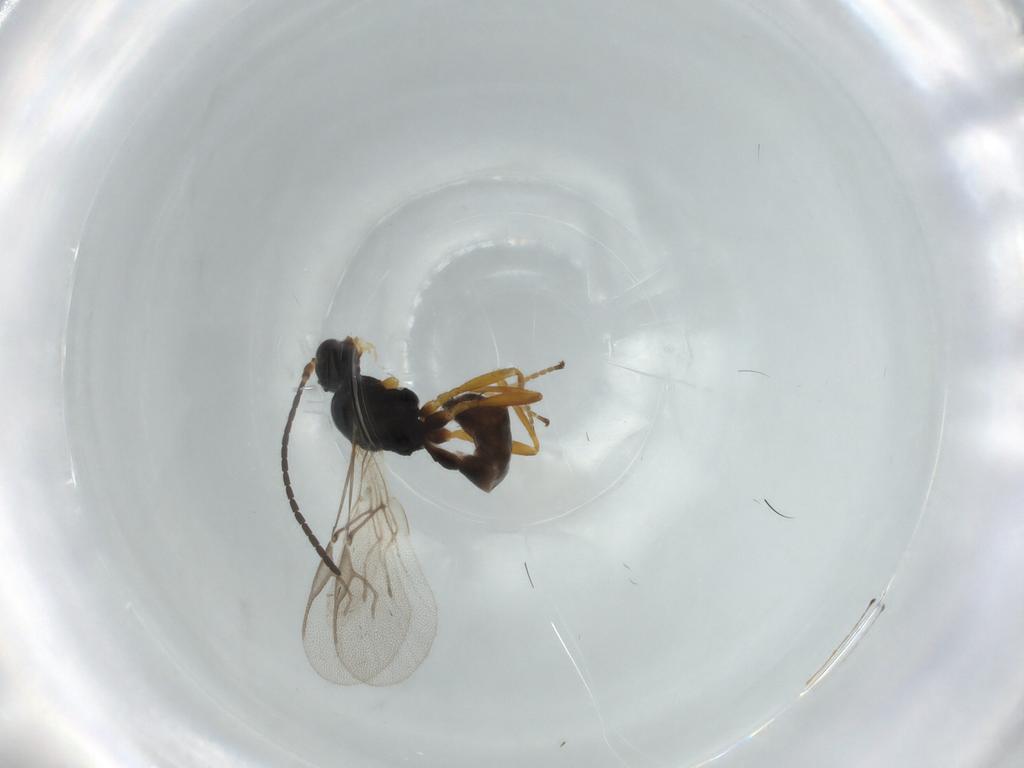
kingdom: Animalia
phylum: Arthropoda
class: Insecta
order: Hymenoptera
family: Braconidae
